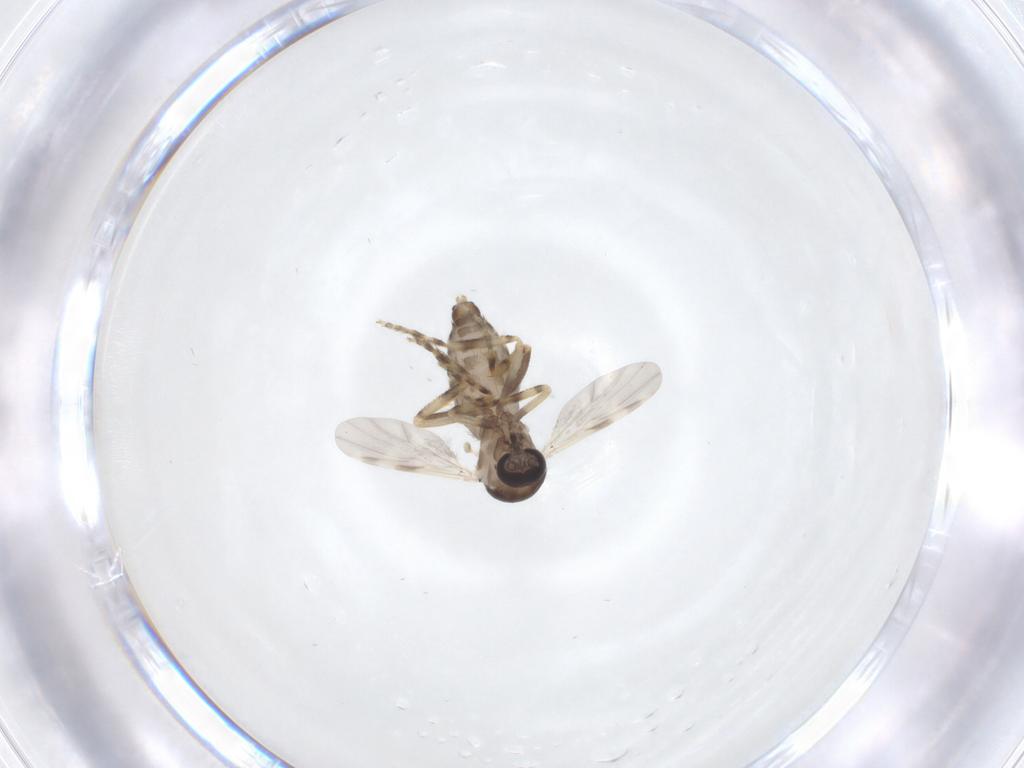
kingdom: Animalia
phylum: Arthropoda
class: Insecta
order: Diptera
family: Ceratopogonidae
